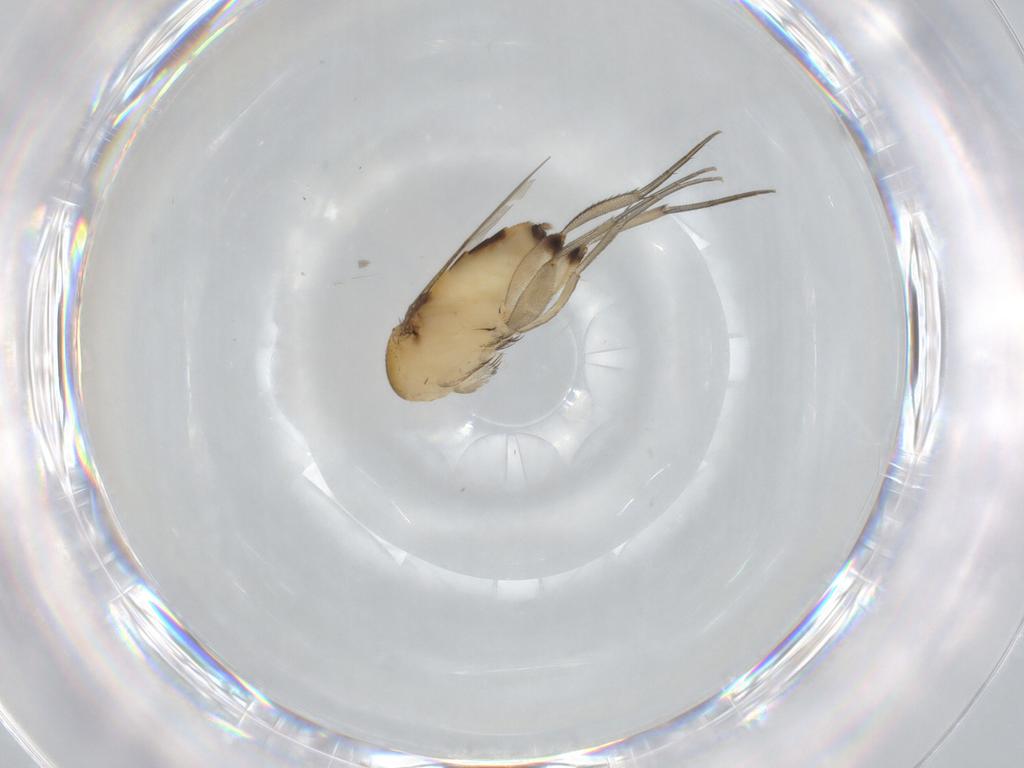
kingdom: Animalia
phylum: Arthropoda
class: Insecta
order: Diptera
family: Phoridae
